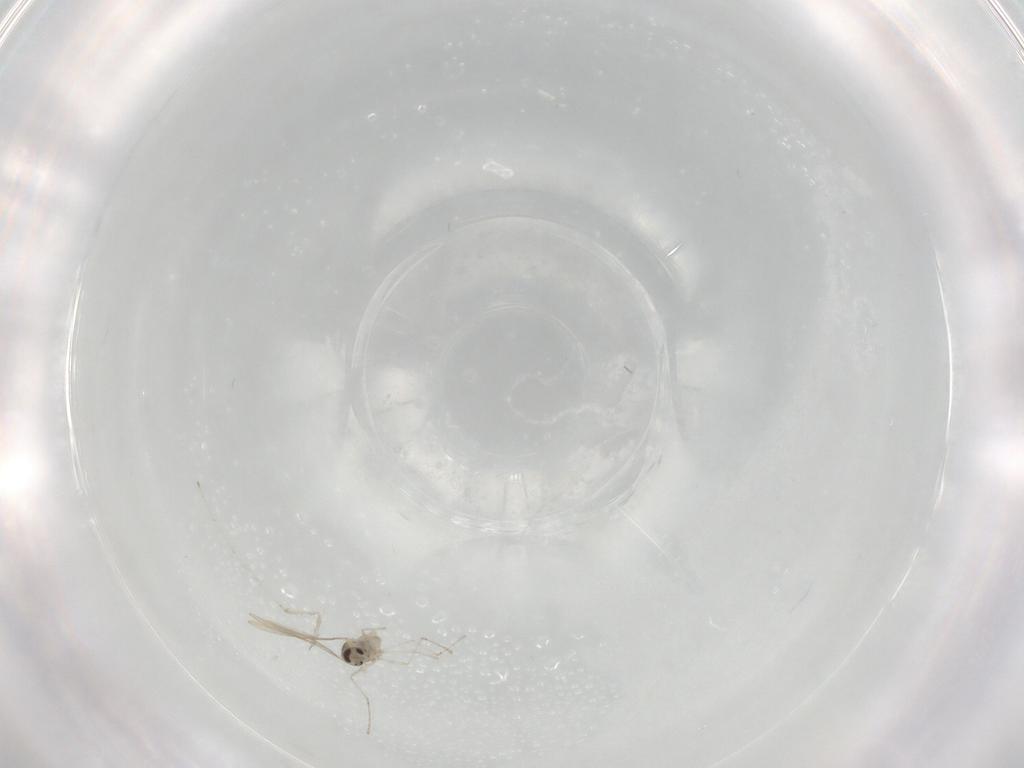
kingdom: Animalia
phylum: Arthropoda
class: Insecta
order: Diptera
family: Cecidomyiidae
